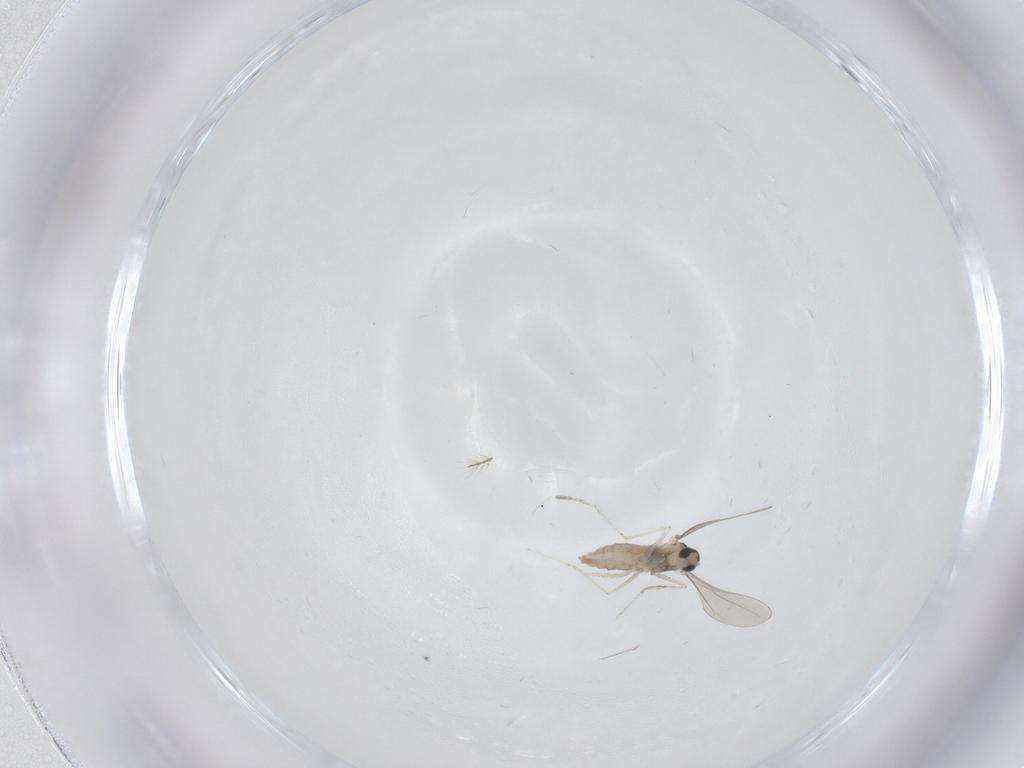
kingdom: Animalia
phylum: Arthropoda
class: Insecta
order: Diptera
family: Cecidomyiidae
